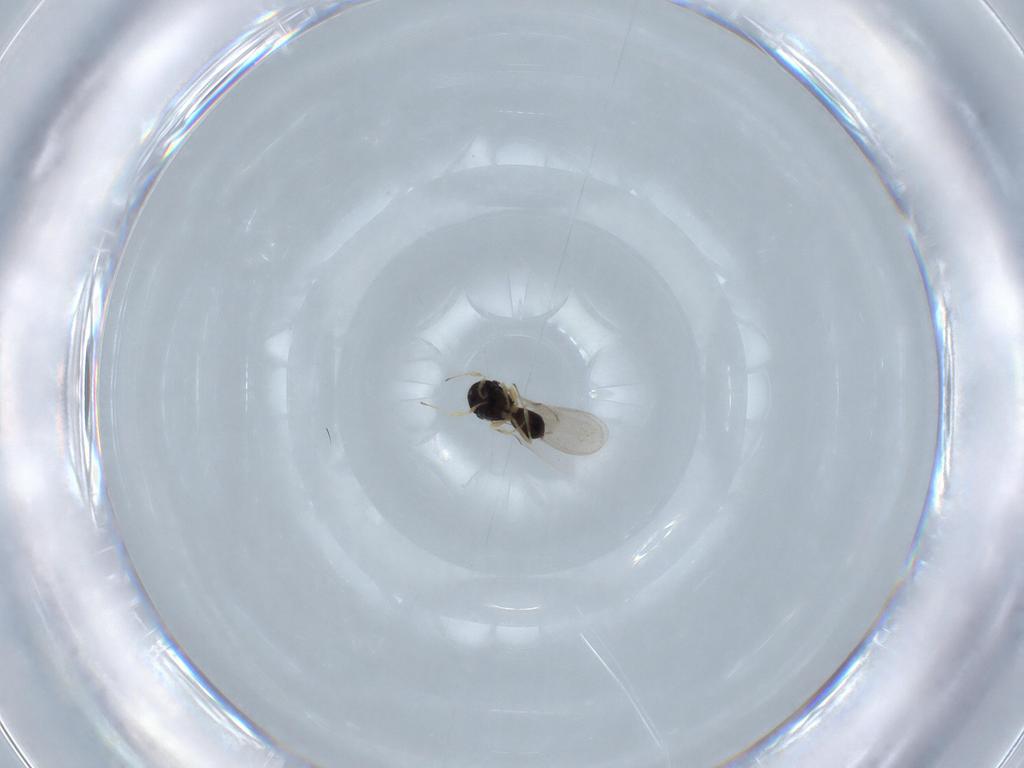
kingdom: Animalia
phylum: Arthropoda
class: Insecta
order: Hymenoptera
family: Scelionidae
